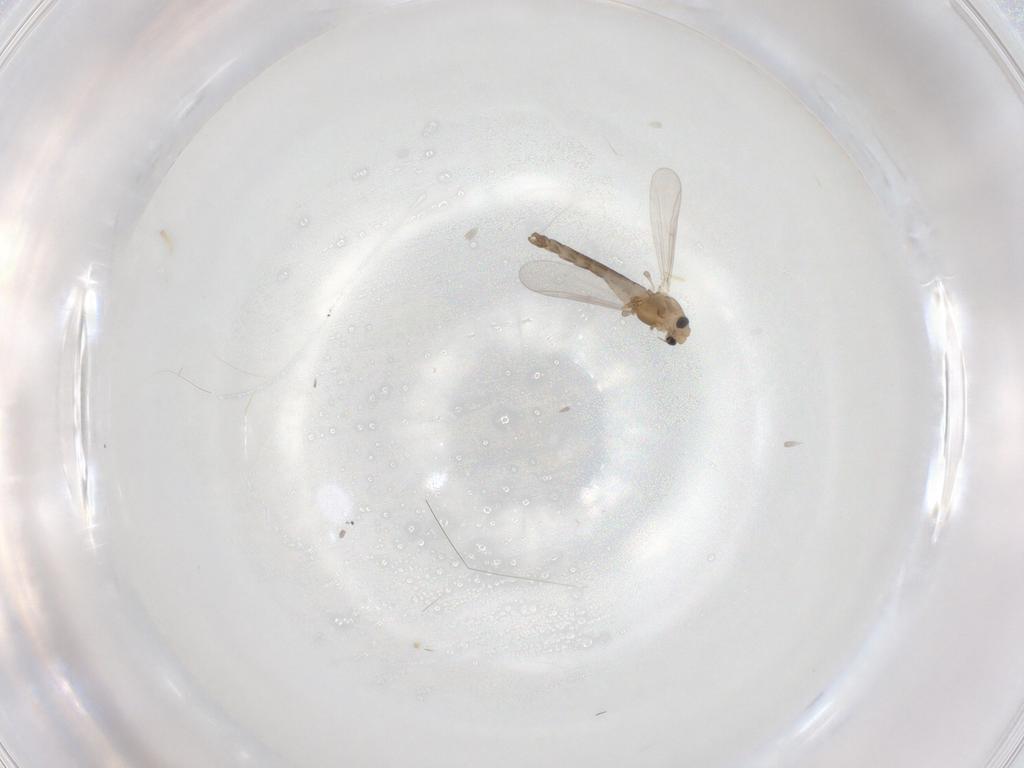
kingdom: Animalia
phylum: Arthropoda
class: Insecta
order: Diptera
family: Chironomidae
